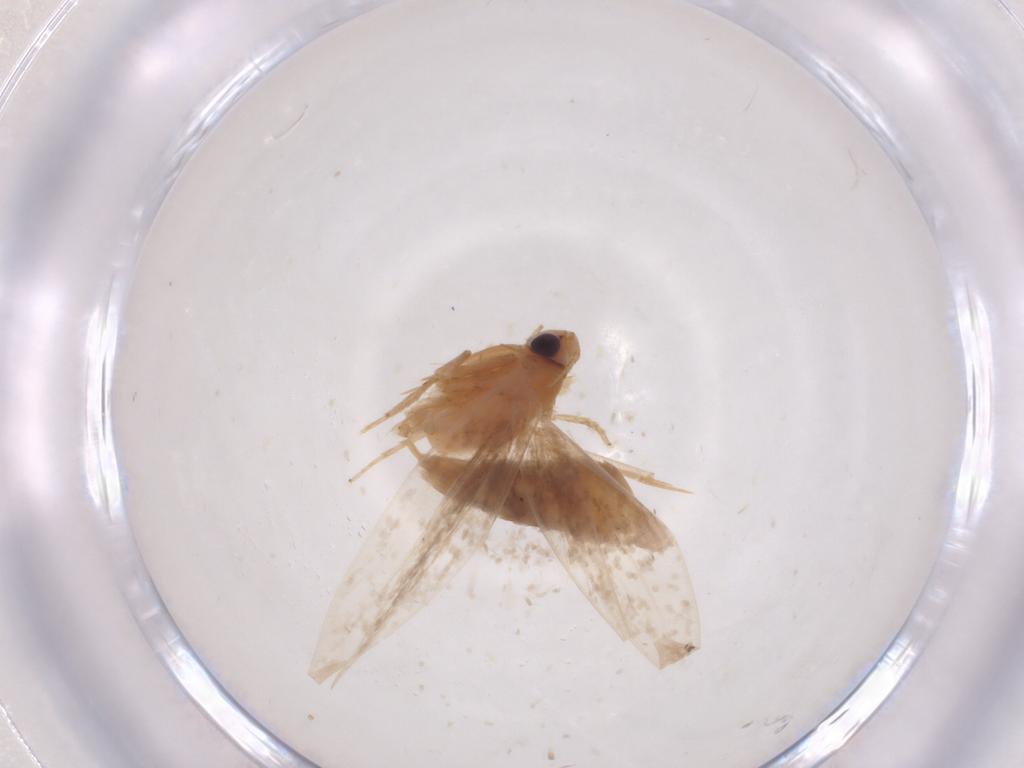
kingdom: Animalia
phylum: Arthropoda
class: Insecta
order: Lepidoptera
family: Tineidae
